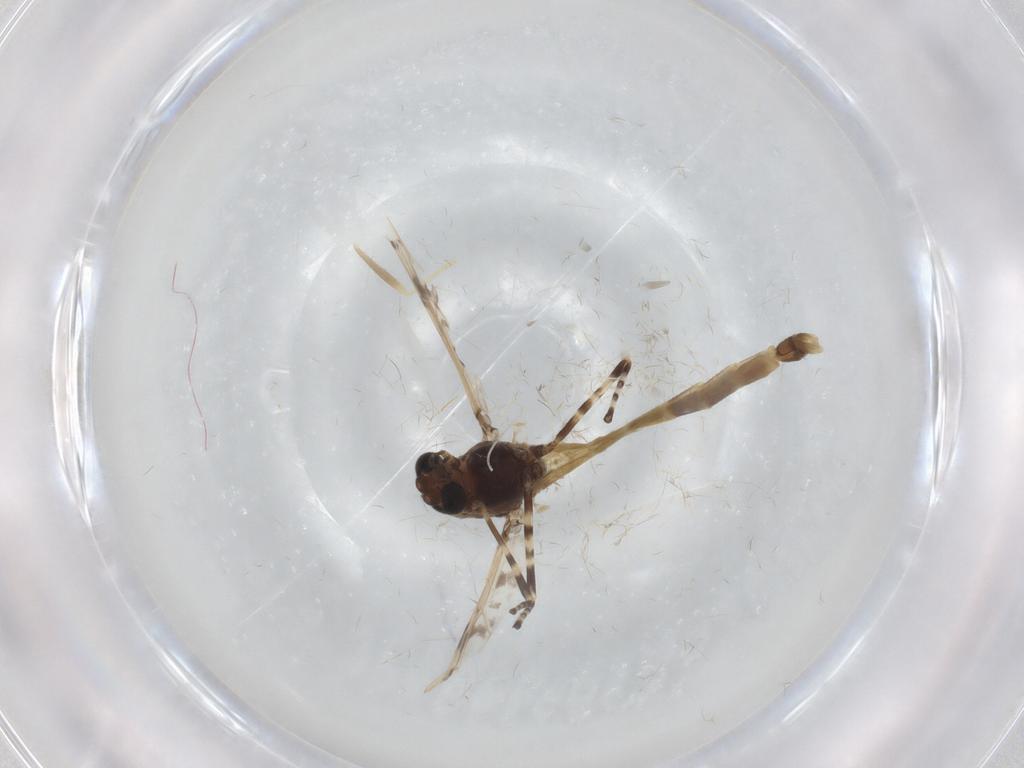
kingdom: Animalia
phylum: Arthropoda
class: Insecta
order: Diptera
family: Chironomidae
